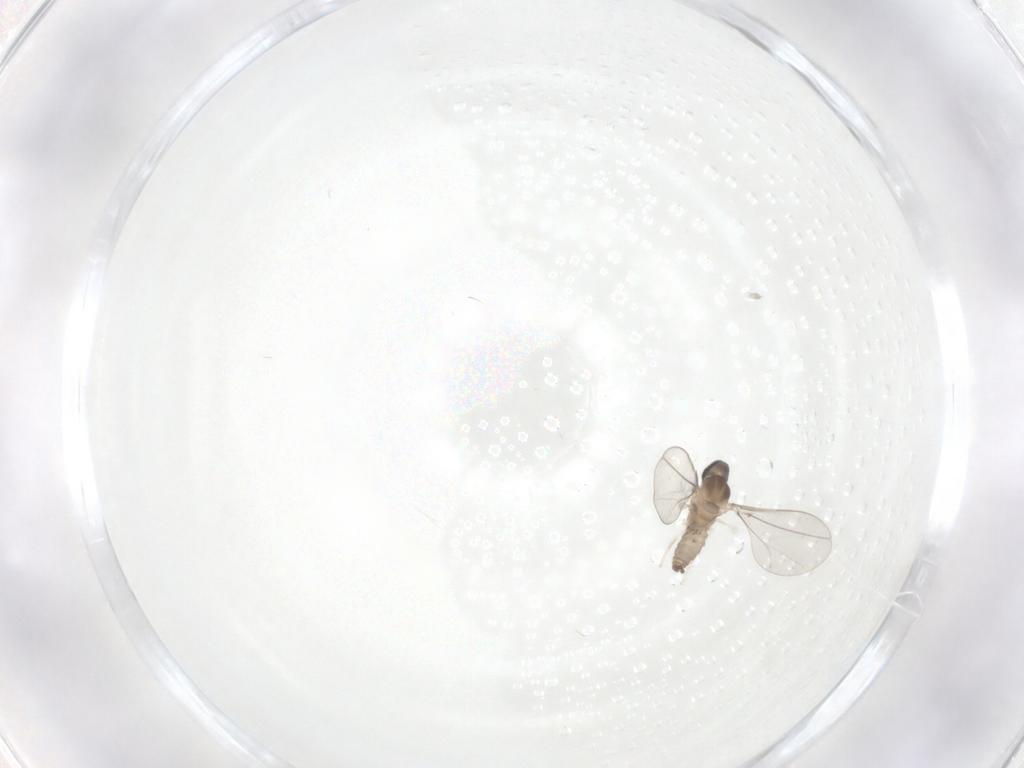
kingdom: Animalia
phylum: Arthropoda
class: Insecta
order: Diptera
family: Cecidomyiidae
